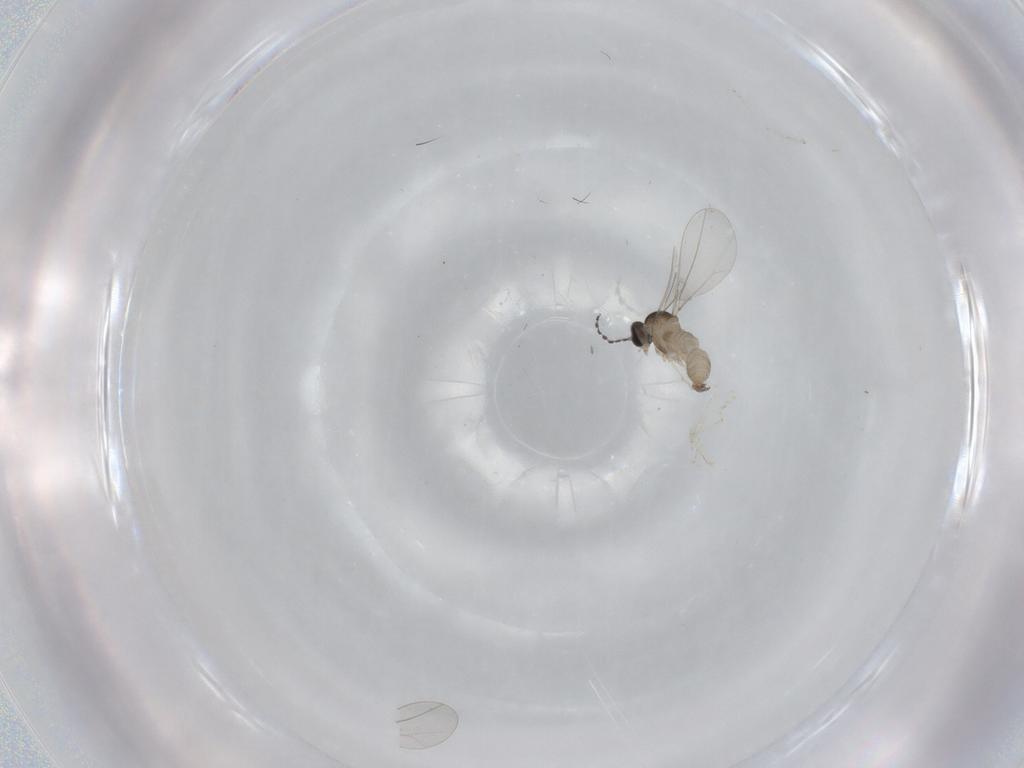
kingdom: Animalia
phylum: Arthropoda
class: Insecta
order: Diptera
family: Cecidomyiidae
